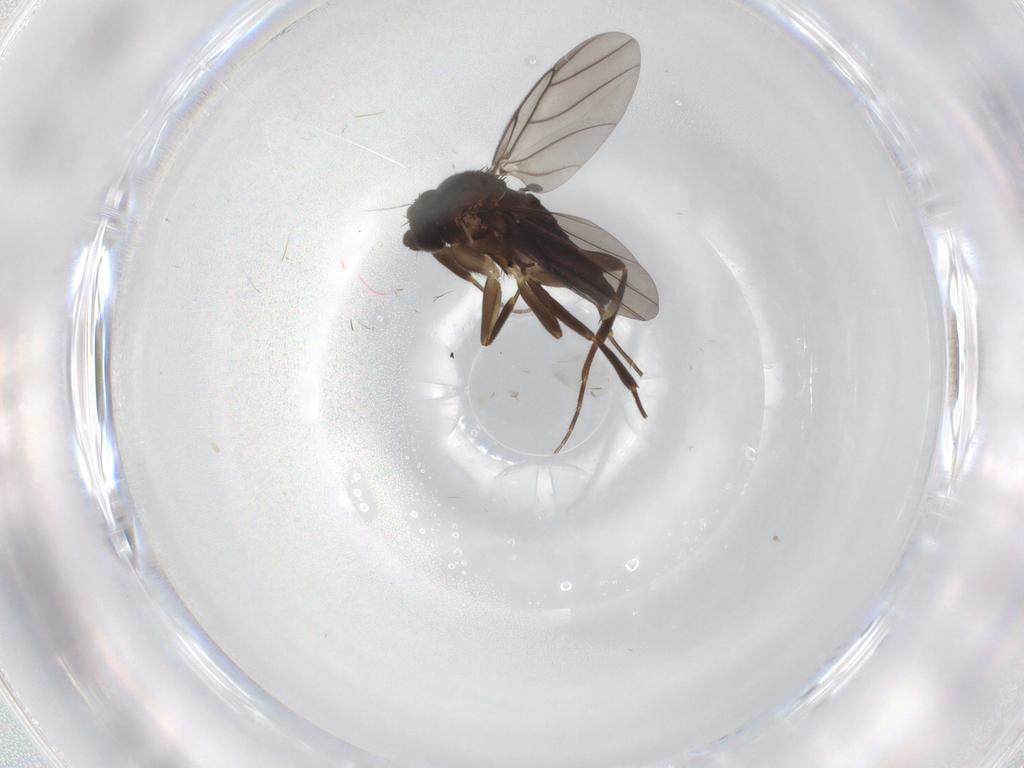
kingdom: Animalia
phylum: Arthropoda
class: Insecta
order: Diptera
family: Phoridae
